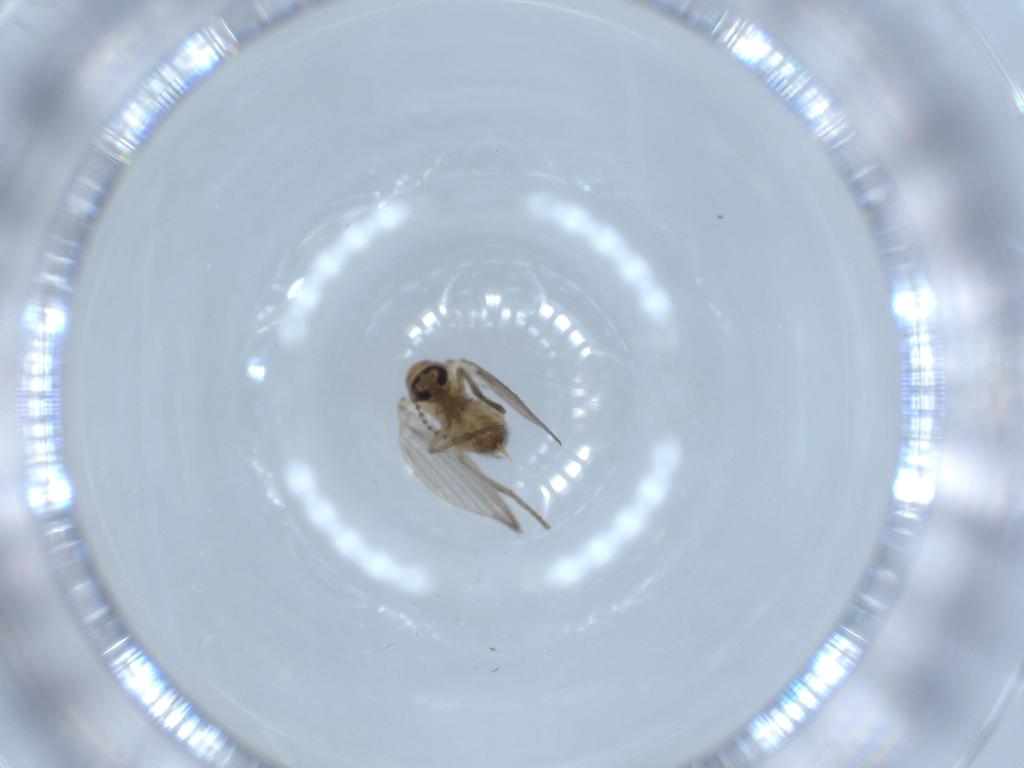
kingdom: Animalia
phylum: Arthropoda
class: Insecta
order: Diptera
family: Psychodidae
